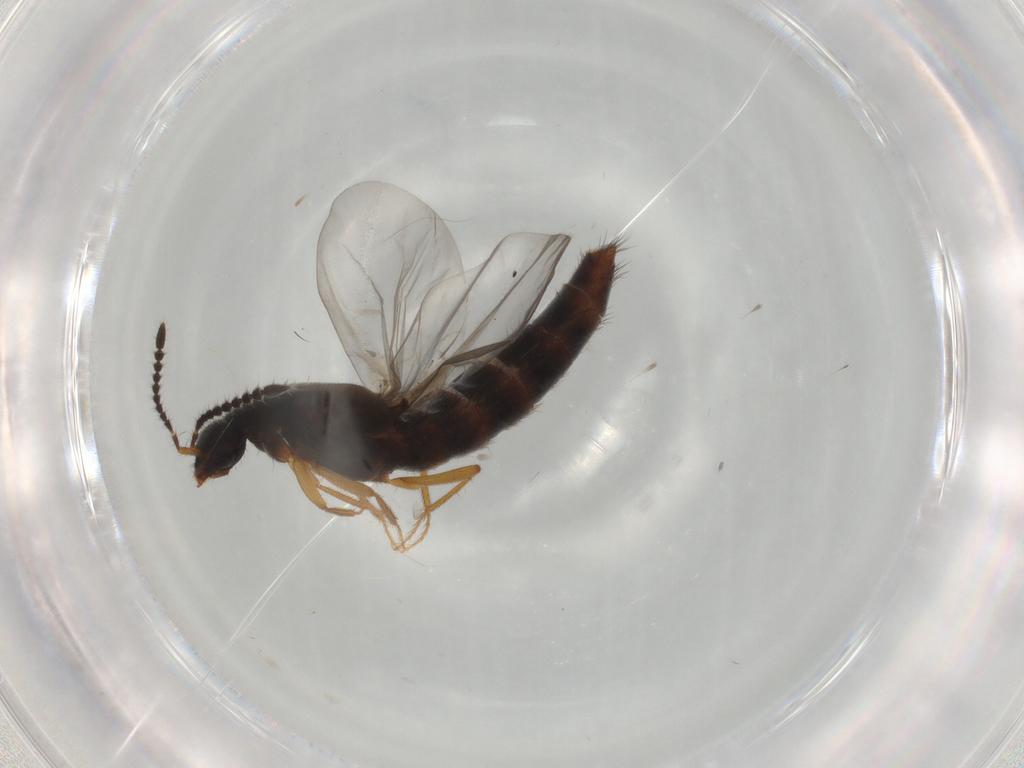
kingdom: Animalia
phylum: Arthropoda
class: Insecta
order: Coleoptera
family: Staphylinidae
